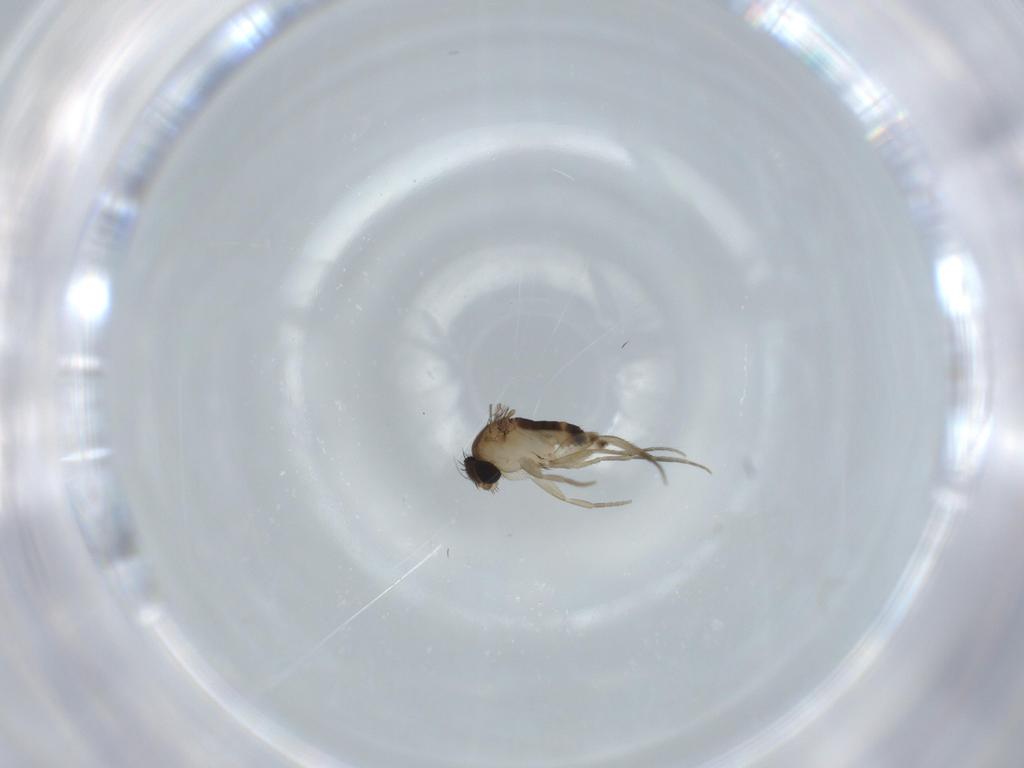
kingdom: Animalia
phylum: Arthropoda
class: Insecta
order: Diptera
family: Phoridae
